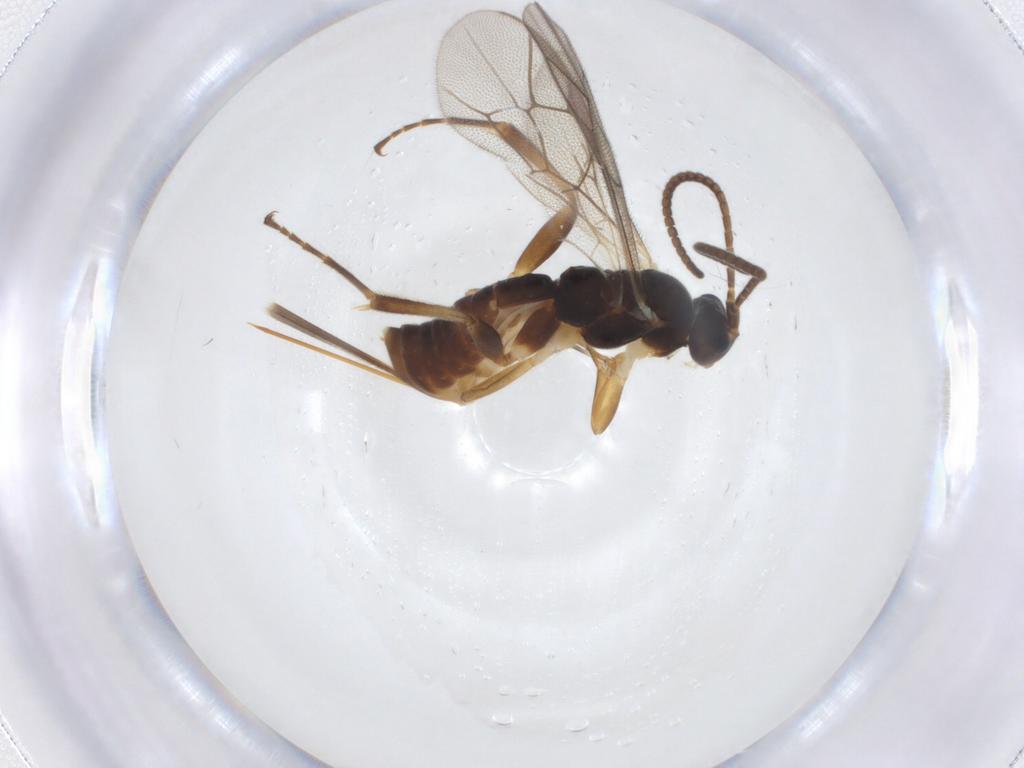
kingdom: Animalia
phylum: Arthropoda
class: Insecta
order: Hymenoptera
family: Ichneumonidae
